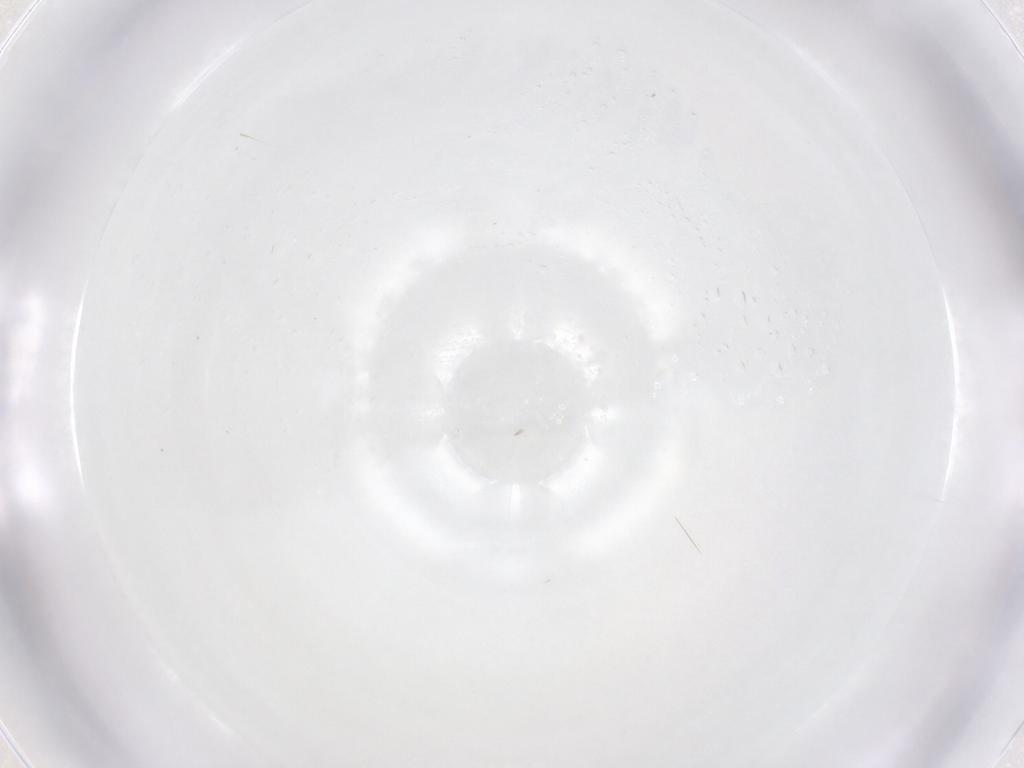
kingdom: Animalia
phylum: Arthropoda
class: Insecta
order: Diptera
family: Cecidomyiidae
